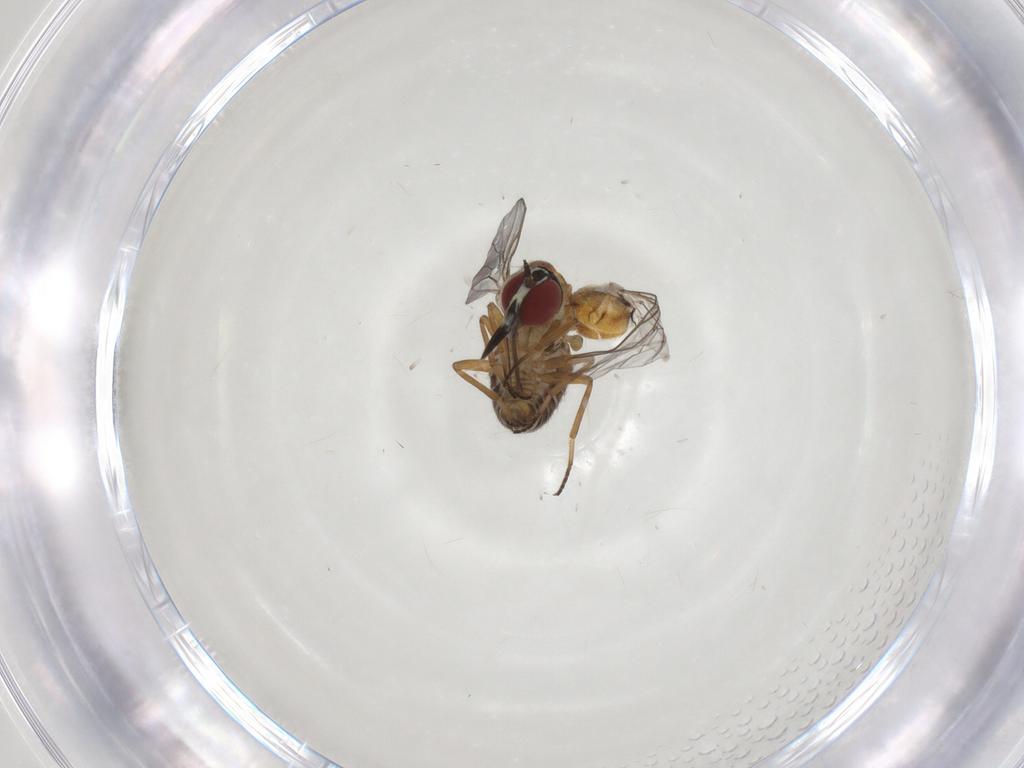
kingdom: Animalia
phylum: Arthropoda
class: Insecta
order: Diptera
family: Bombyliidae
